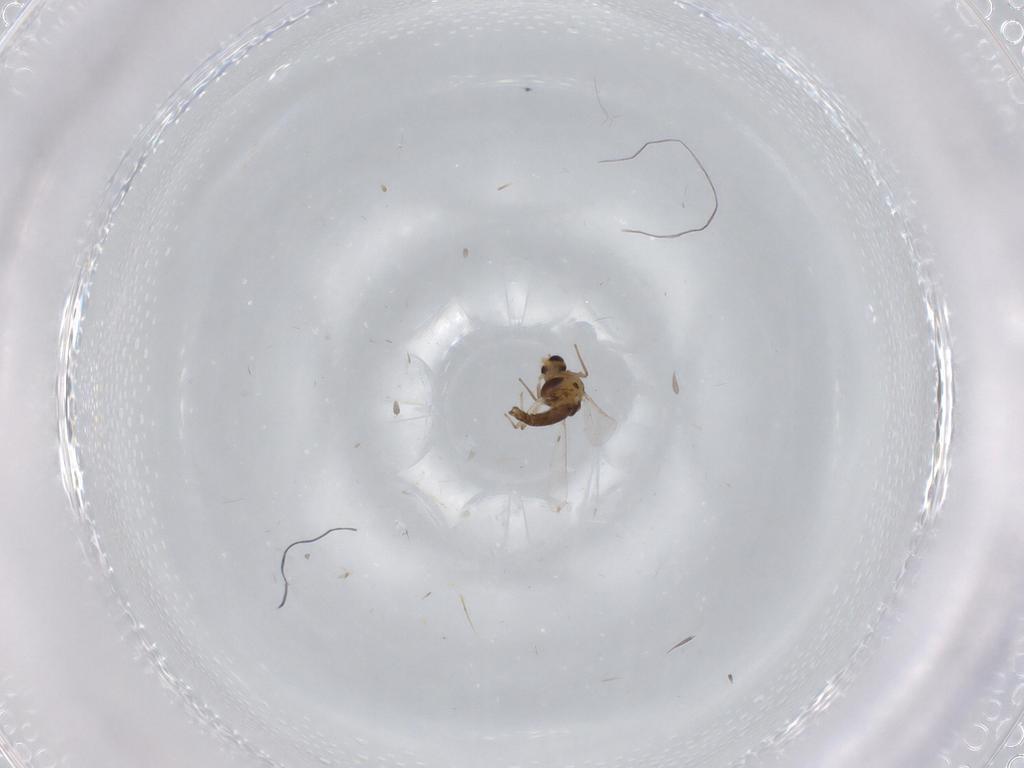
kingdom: Animalia
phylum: Arthropoda
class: Insecta
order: Diptera
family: Chironomidae
